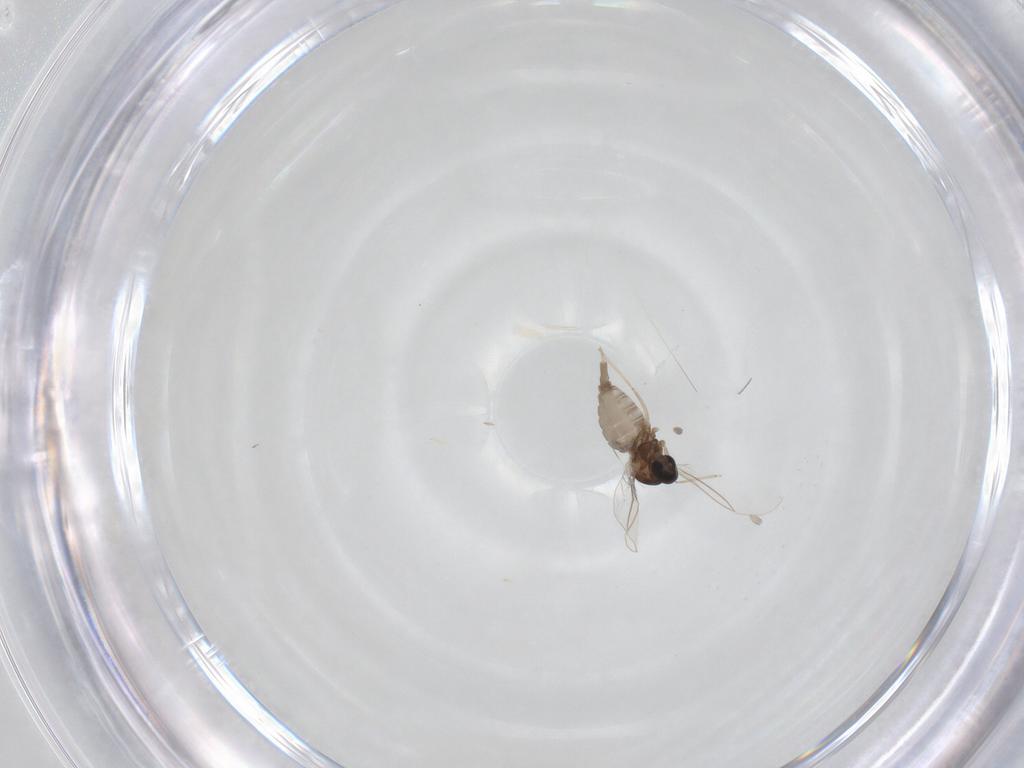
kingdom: Animalia
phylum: Arthropoda
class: Insecta
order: Diptera
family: Cecidomyiidae
